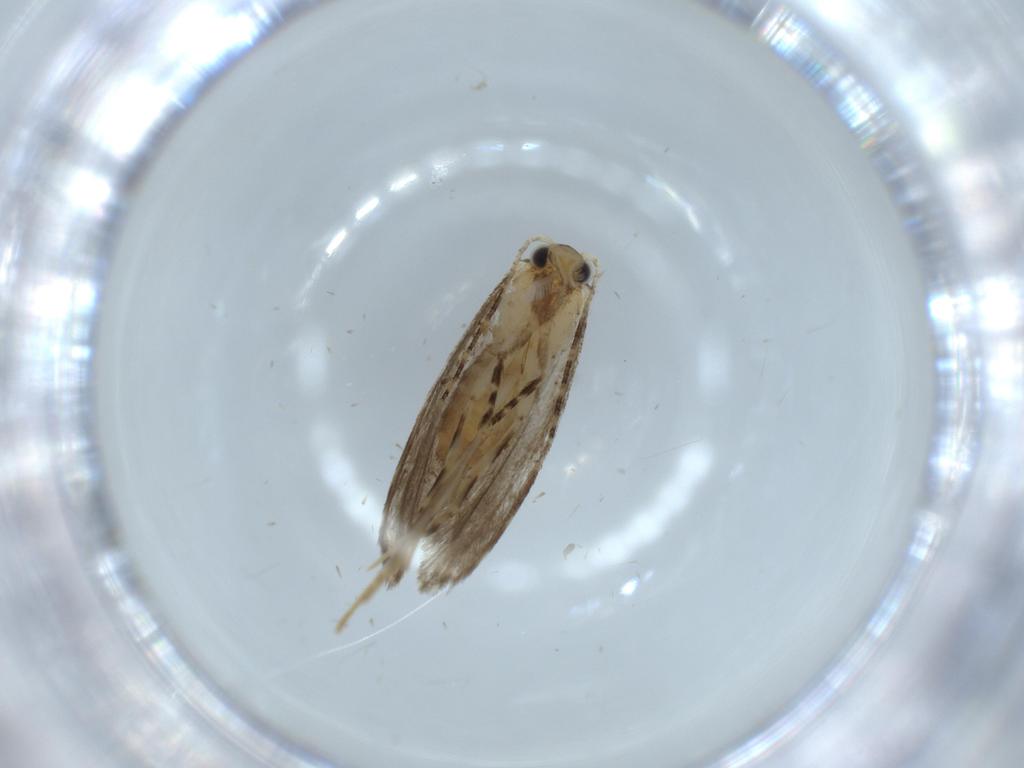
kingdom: Animalia
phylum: Arthropoda
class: Insecta
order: Lepidoptera
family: Tineidae
